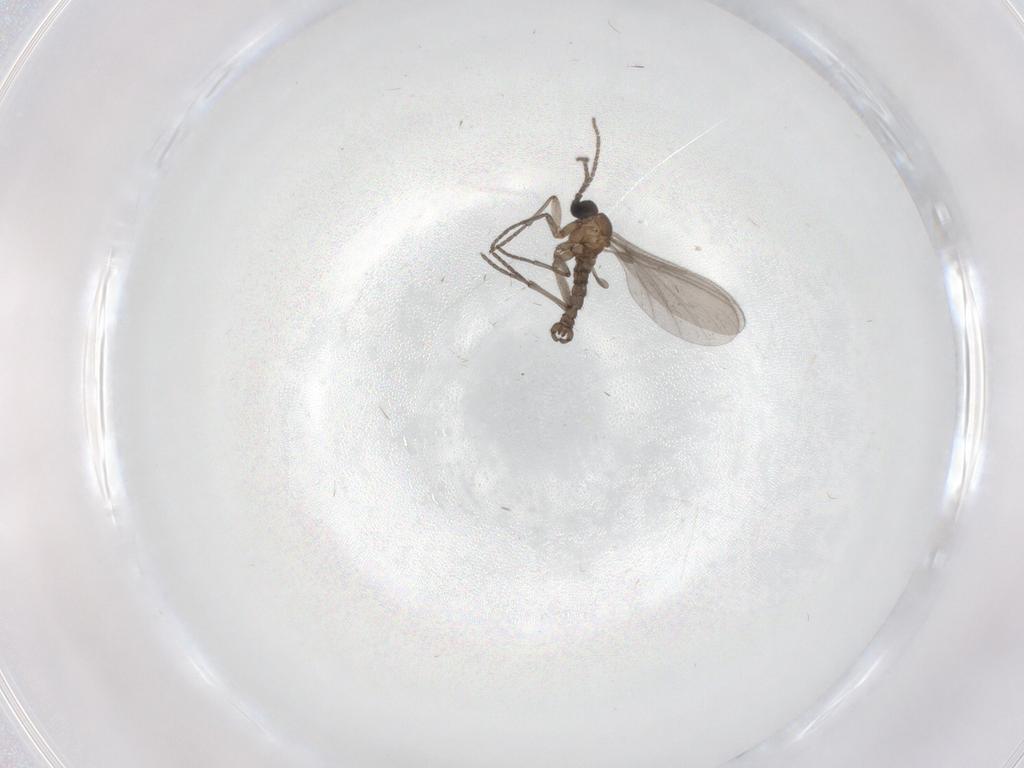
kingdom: Animalia
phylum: Arthropoda
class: Insecta
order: Diptera
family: Sciaridae
